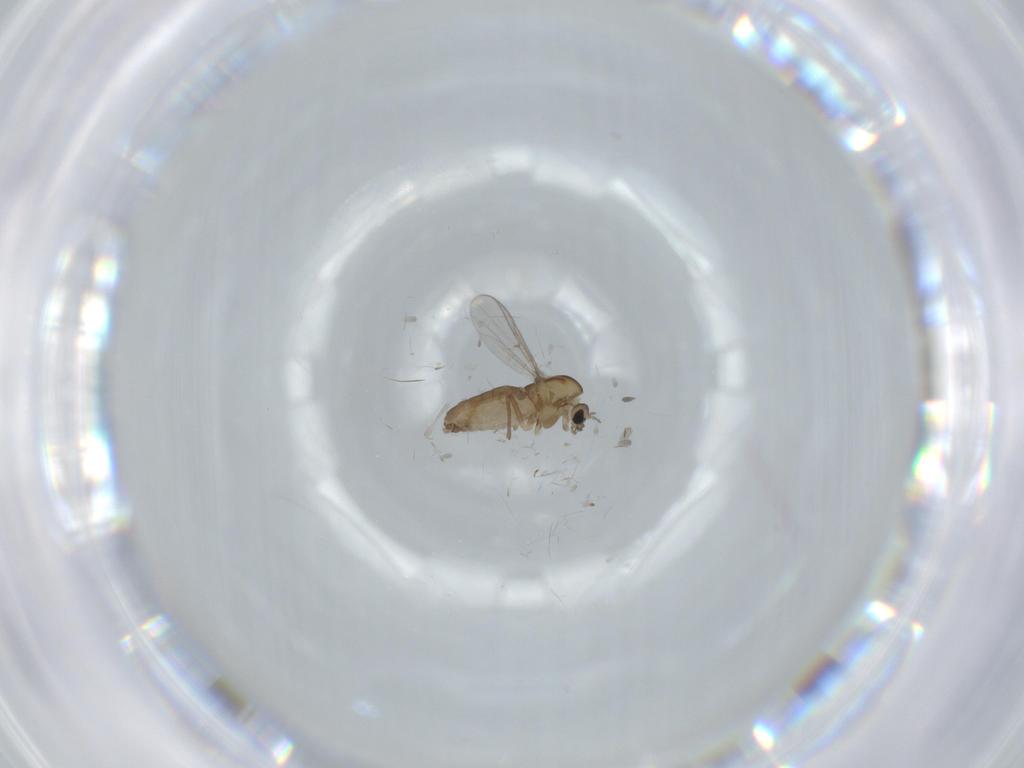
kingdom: Animalia
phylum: Arthropoda
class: Insecta
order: Diptera
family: Chironomidae
